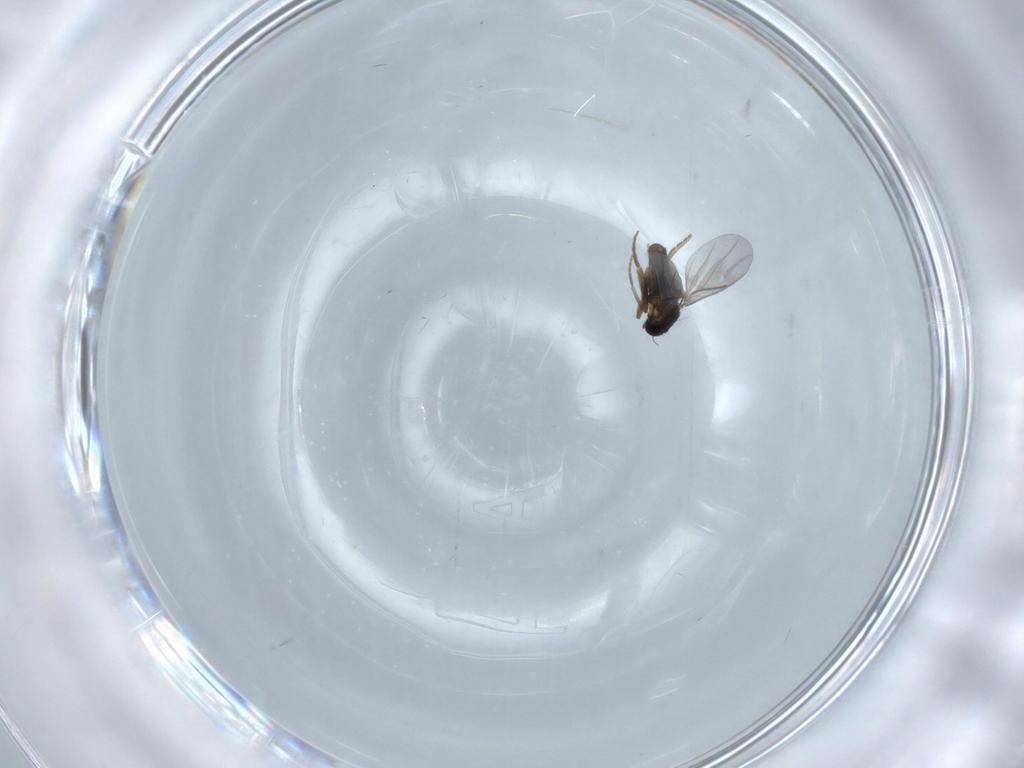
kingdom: Animalia
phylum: Arthropoda
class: Insecta
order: Diptera
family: Phoridae
